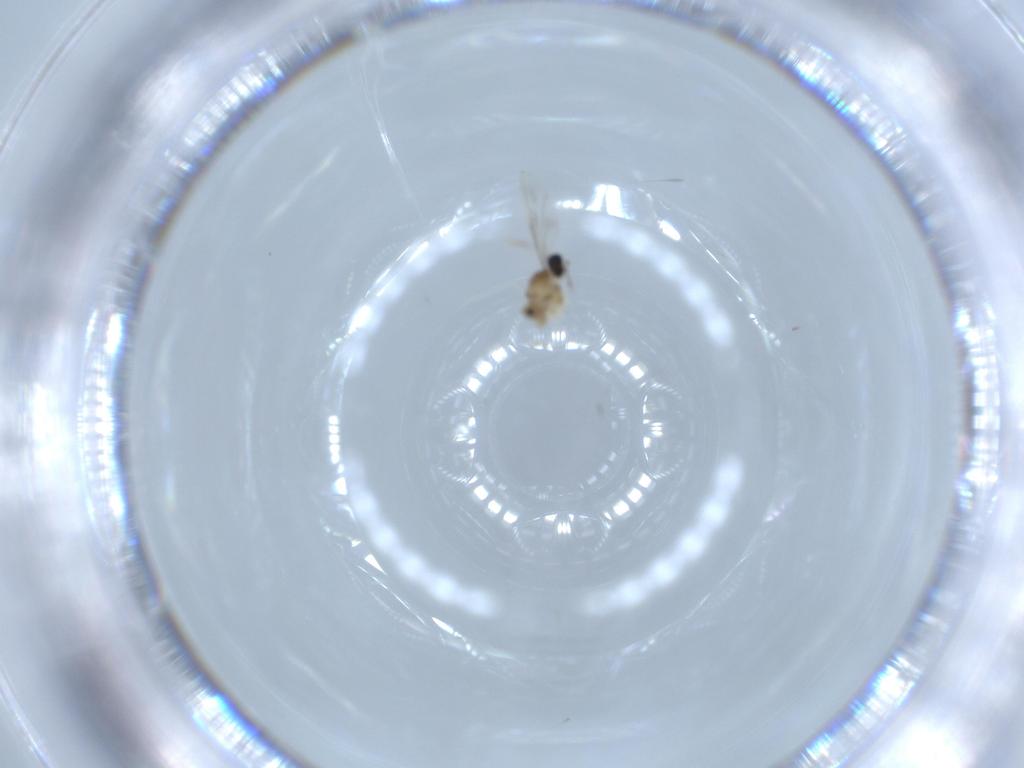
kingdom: Animalia
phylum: Arthropoda
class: Insecta
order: Diptera
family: Cecidomyiidae
